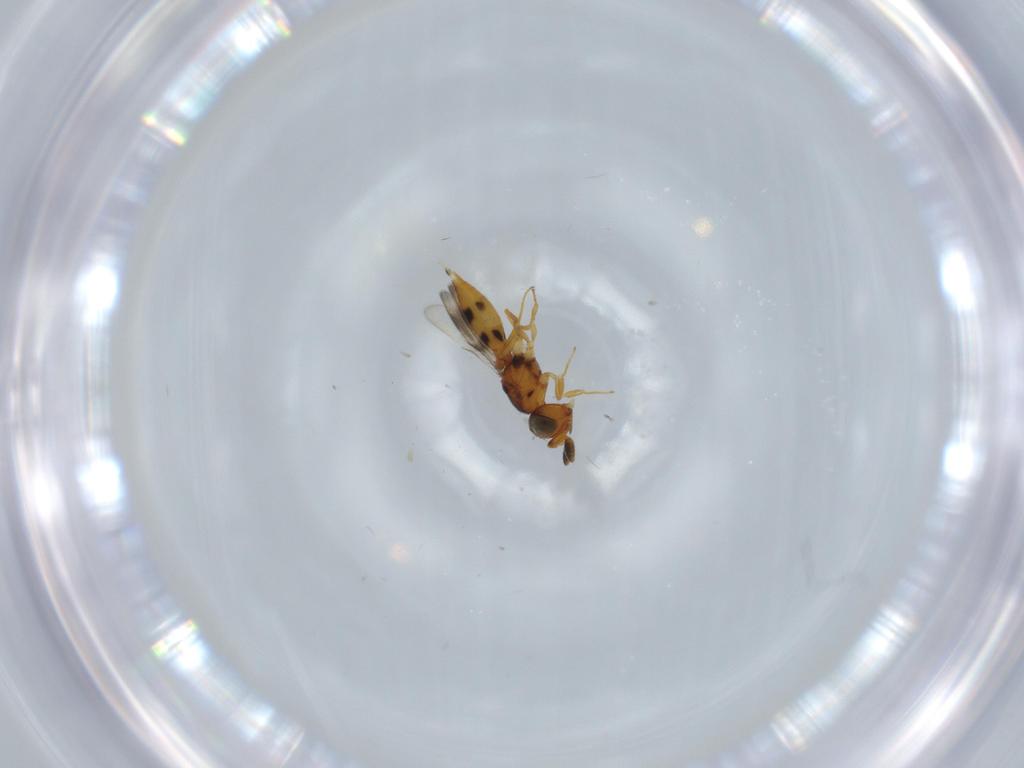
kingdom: Animalia
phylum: Arthropoda
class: Insecta
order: Hymenoptera
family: Scelionidae
